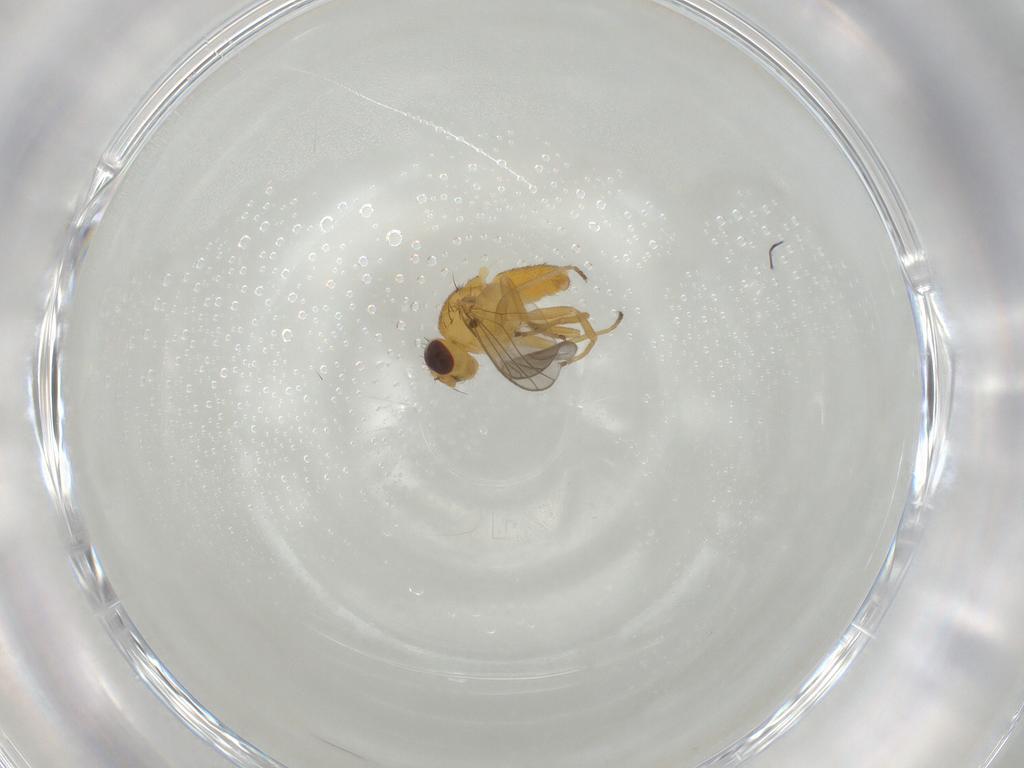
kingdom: Animalia
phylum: Arthropoda
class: Insecta
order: Diptera
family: Chloropidae
